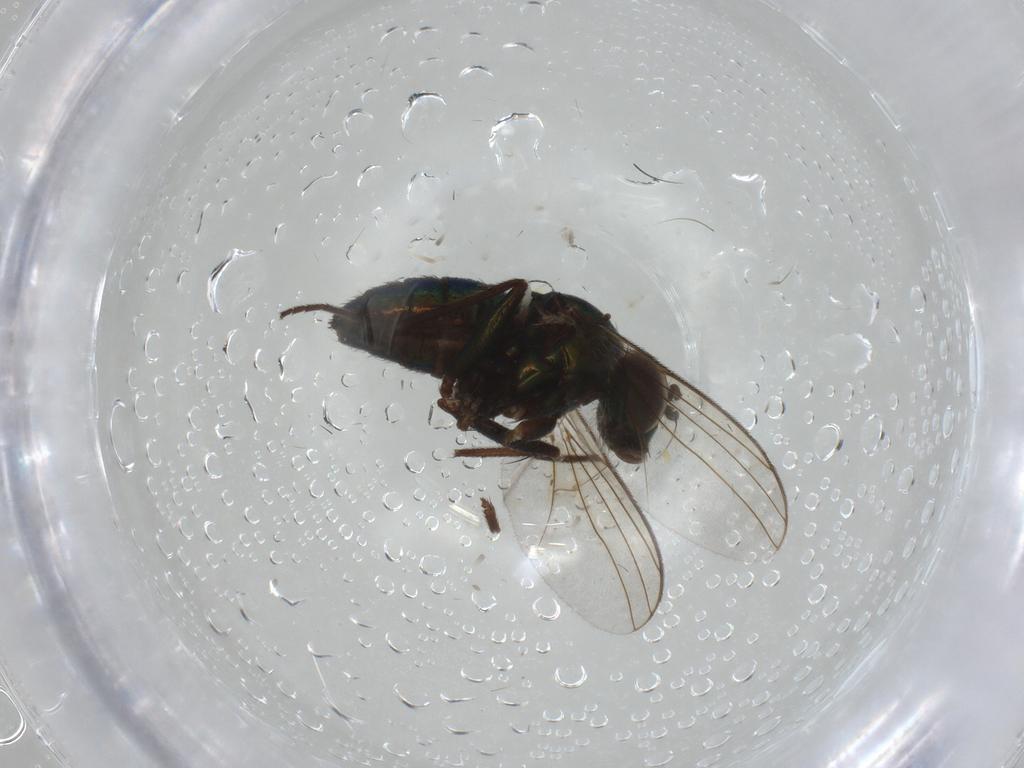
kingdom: Animalia
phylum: Arthropoda
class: Insecta
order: Diptera
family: Dolichopodidae
